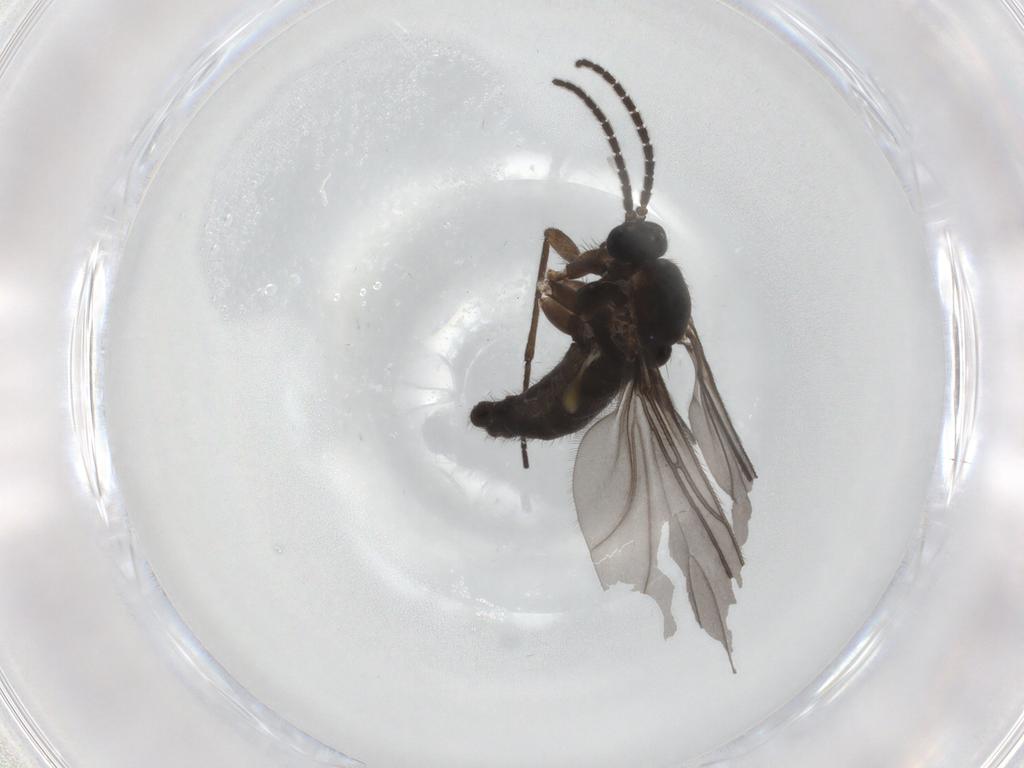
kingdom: Animalia
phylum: Arthropoda
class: Insecta
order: Diptera
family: Sciaridae
